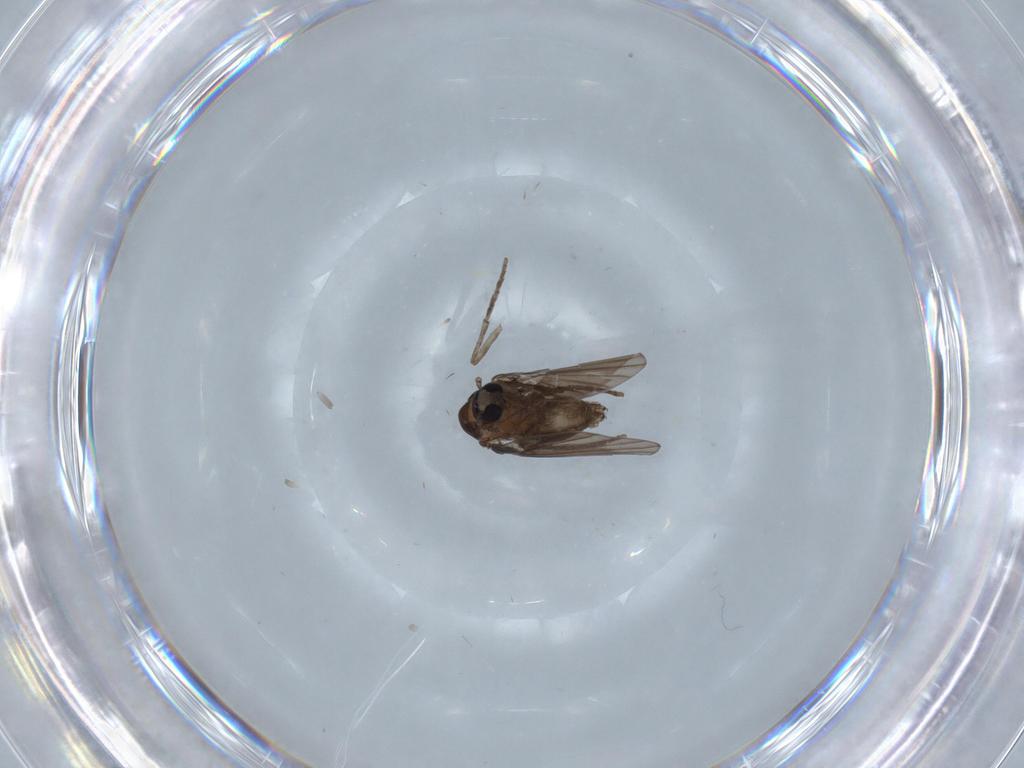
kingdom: Animalia
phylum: Arthropoda
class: Insecta
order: Diptera
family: Psychodidae
